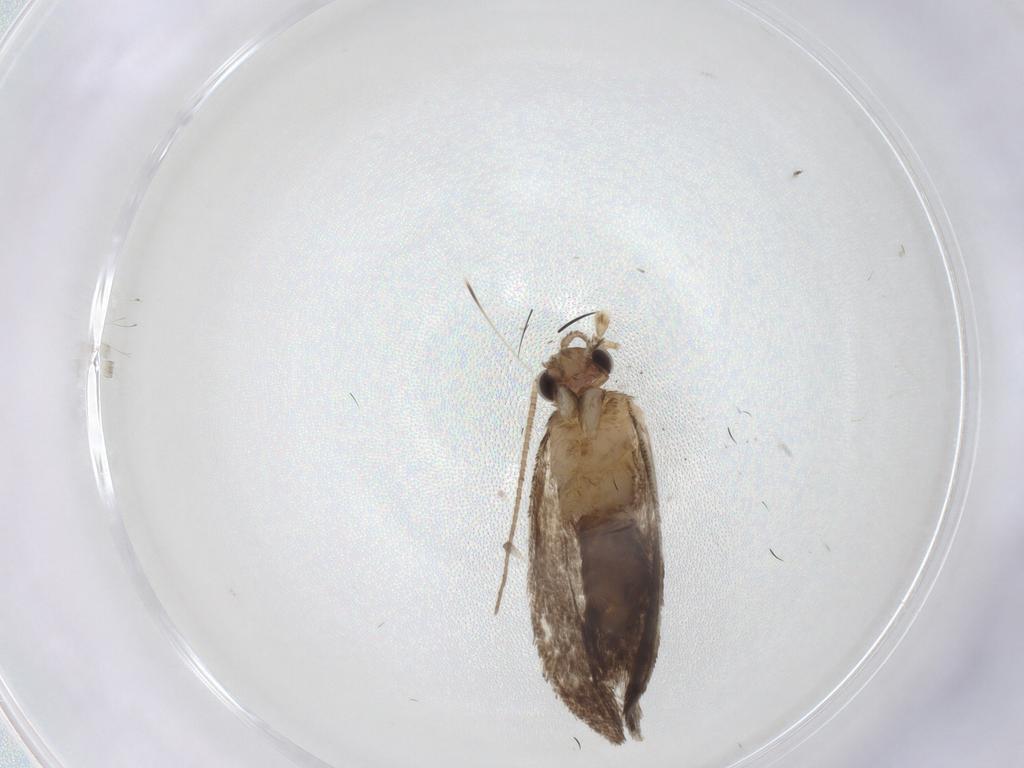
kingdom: Animalia
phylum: Arthropoda
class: Insecta
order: Lepidoptera
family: Dryadaulidae
